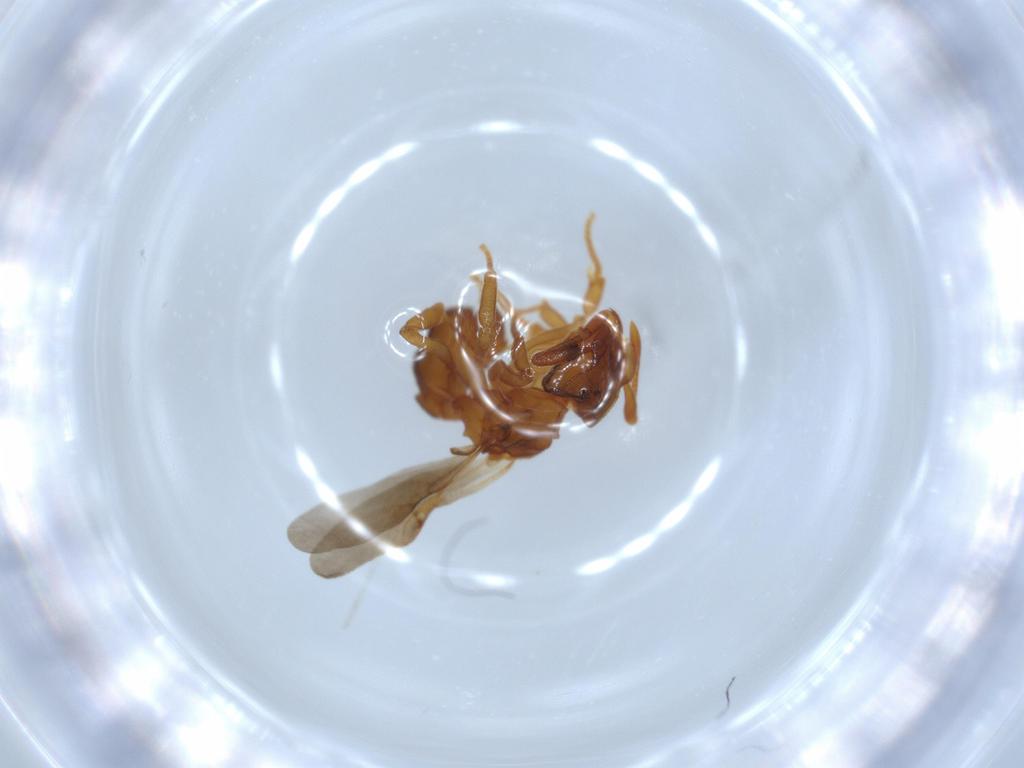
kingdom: Animalia
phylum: Arthropoda
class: Insecta
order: Hymenoptera
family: Formicidae
